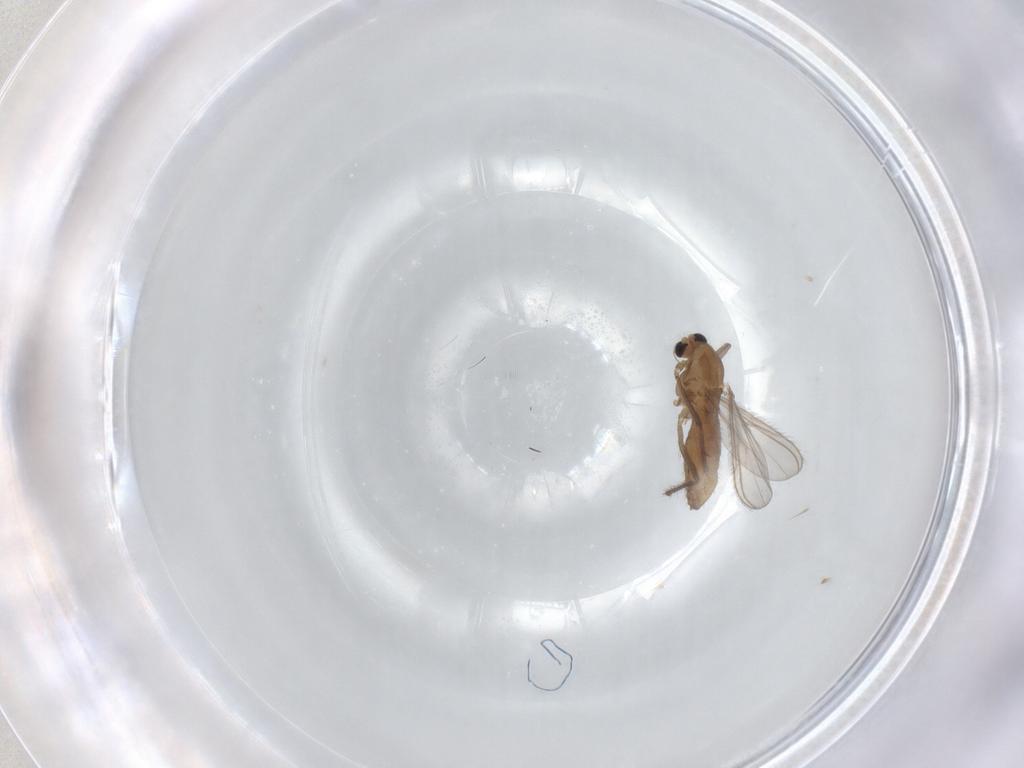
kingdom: Animalia
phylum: Arthropoda
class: Insecta
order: Diptera
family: Chironomidae
